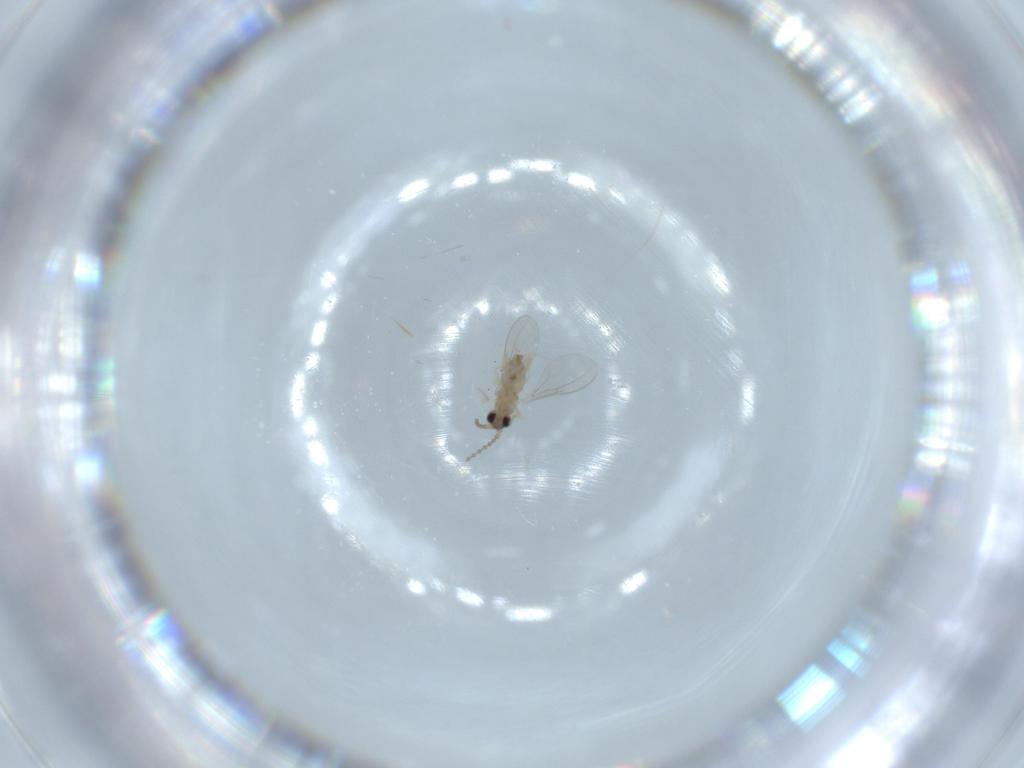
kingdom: Animalia
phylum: Arthropoda
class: Insecta
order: Diptera
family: Cecidomyiidae
